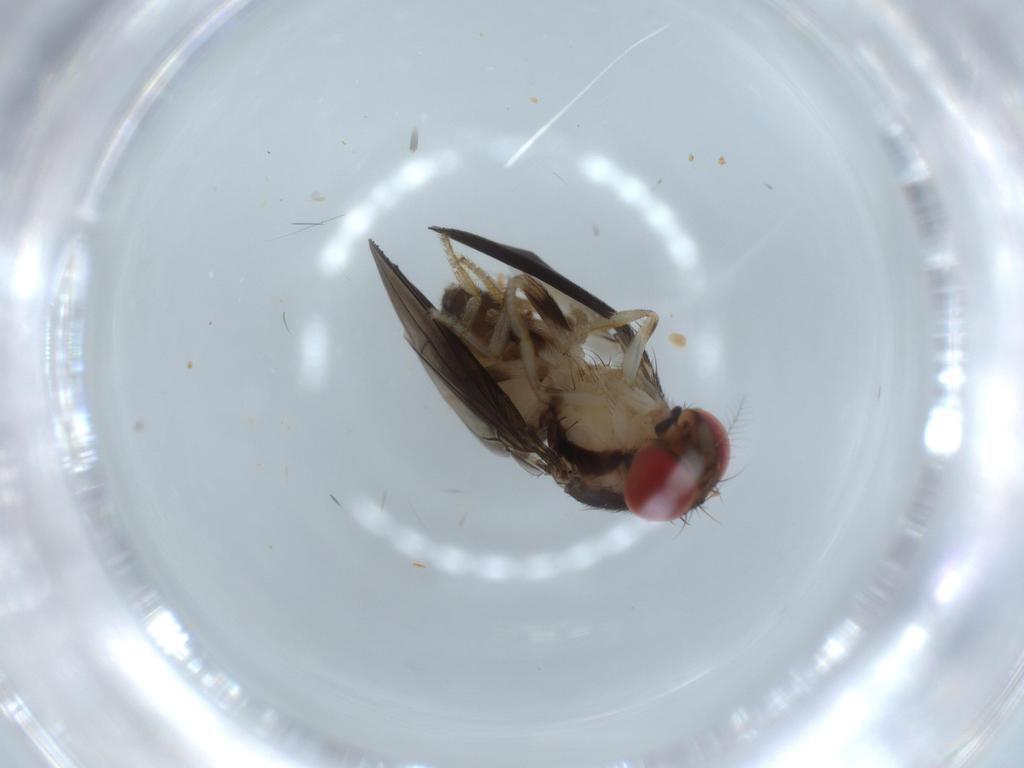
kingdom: Animalia
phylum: Arthropoda
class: Insecta
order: Diptera
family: Drosophilidae
